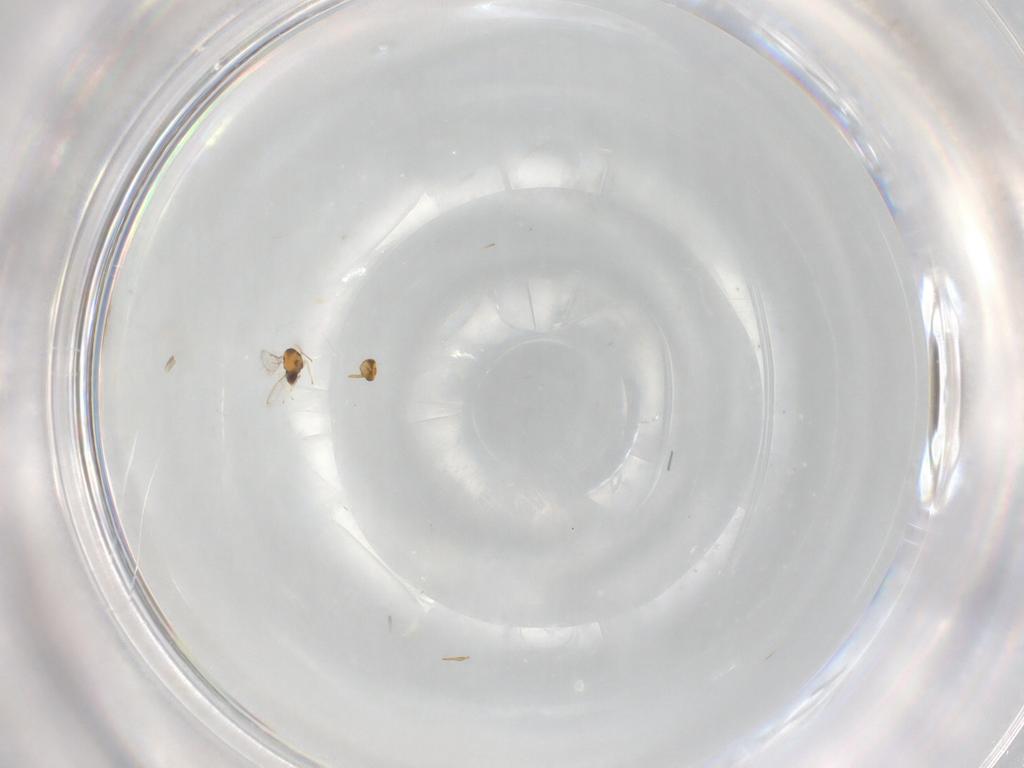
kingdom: Animalia
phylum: Arthropoda
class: Insecta
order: Hymenoptera
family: Aphelinidae
